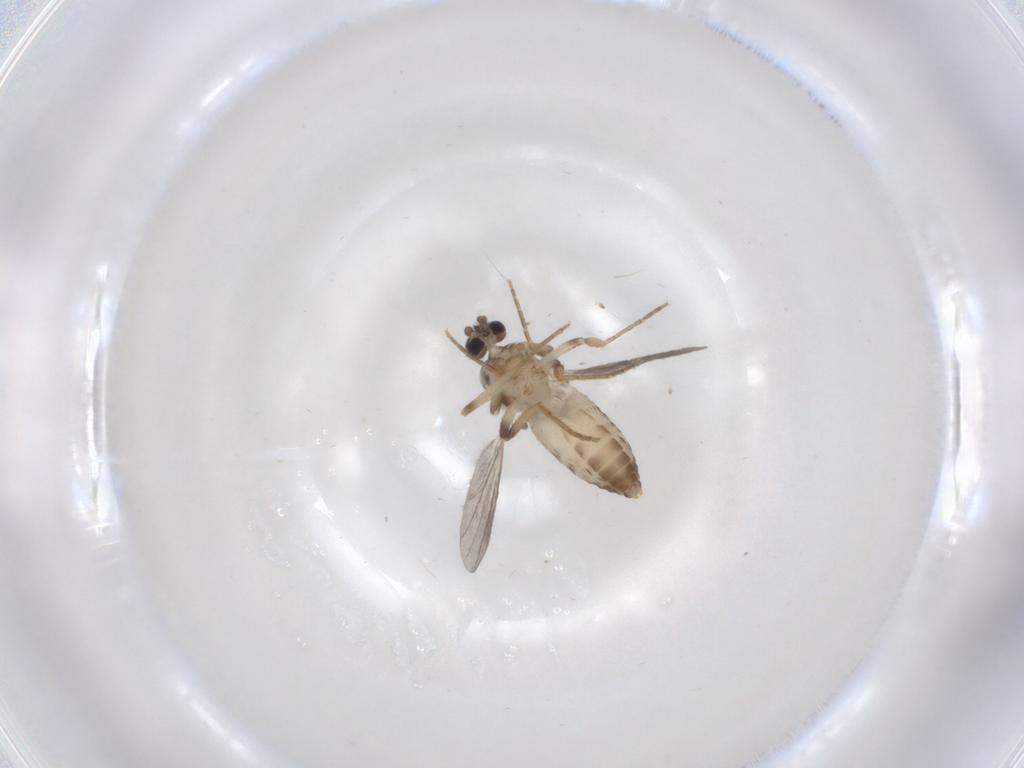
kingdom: Animalia
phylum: Arthropoda
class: Insecta
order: Diptera
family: Ceratopogonidae
